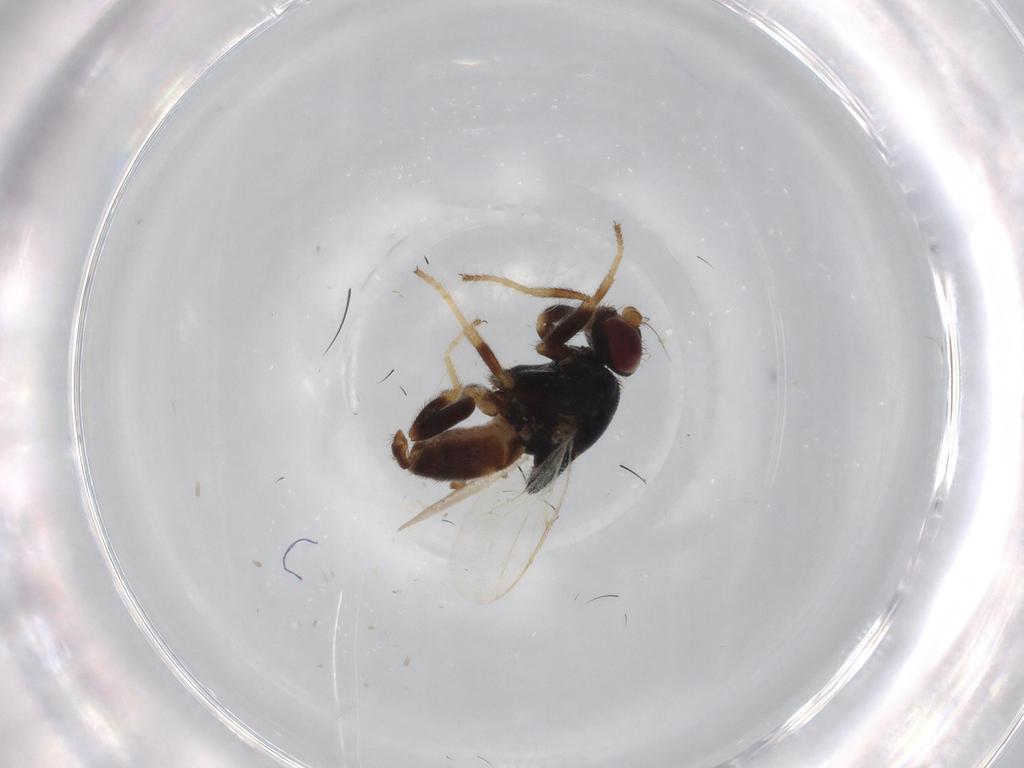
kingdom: Animalia
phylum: Arthropoda
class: Insecta
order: Diptera
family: Chloropidae
